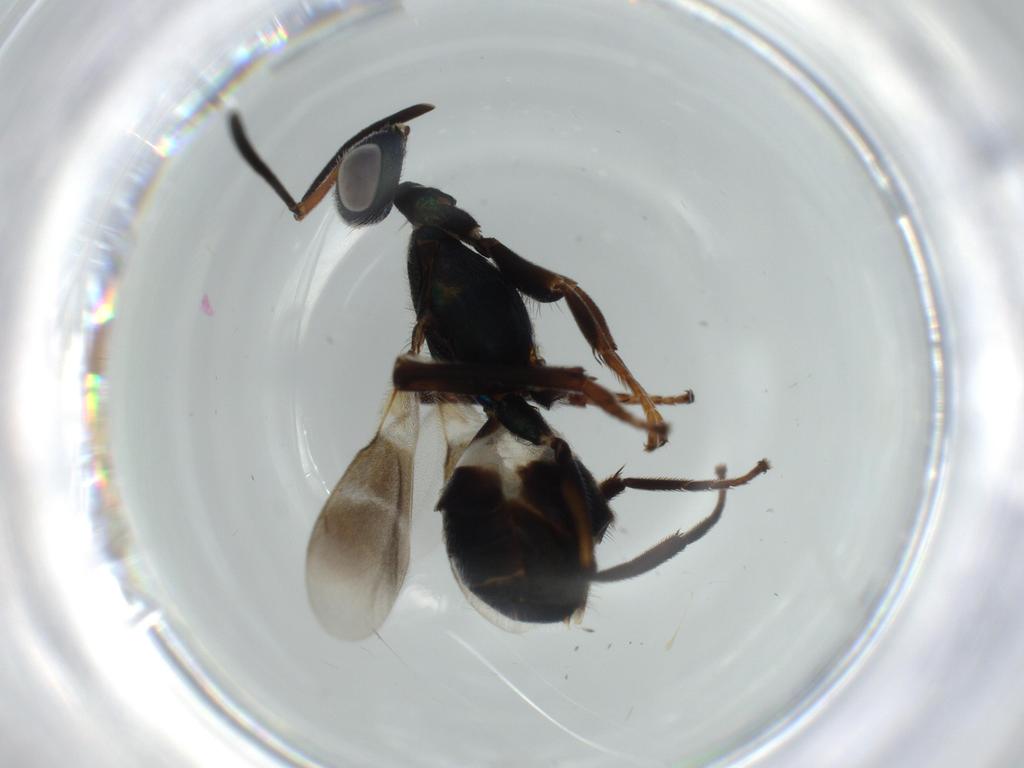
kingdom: Animalia
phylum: Arthropoda
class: Insecta
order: Hymenoptera
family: Eupelmidae
